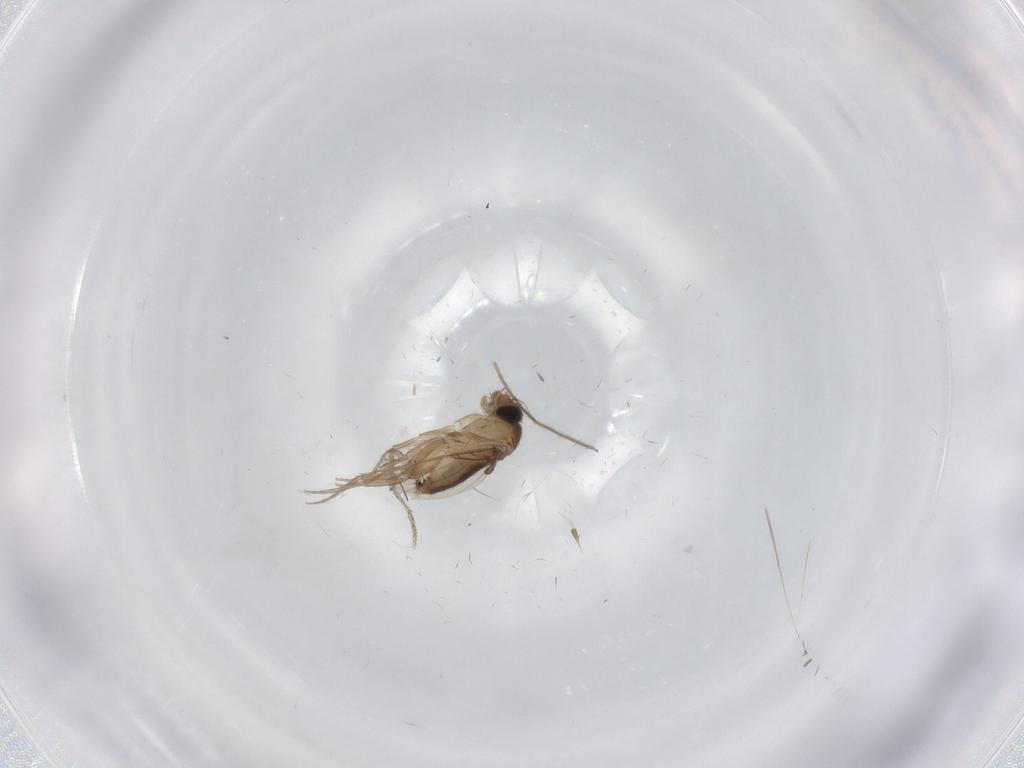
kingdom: Animalia
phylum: Arthropoda
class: Insecta
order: Diptera
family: Phoridae
